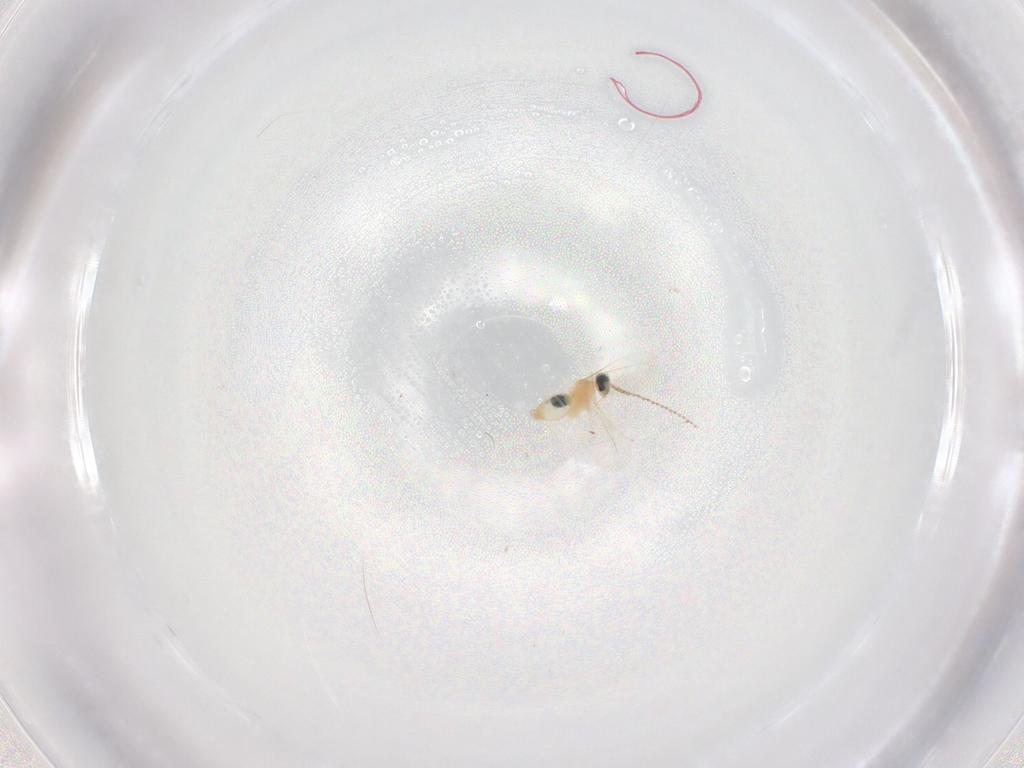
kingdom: Animalia
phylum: Arthropoda
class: Insecta
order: Diptera
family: Cecidomyiidae
